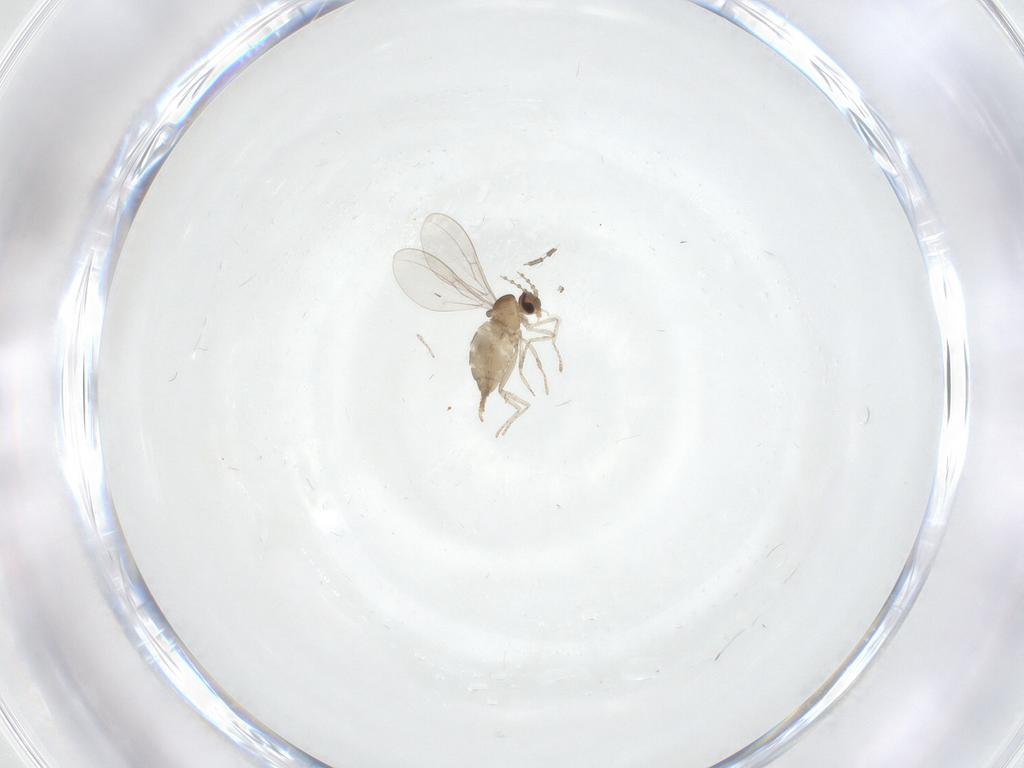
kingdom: Animalia
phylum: Arthropoda
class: Insecta
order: Diptera
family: Cecidomyiidae
